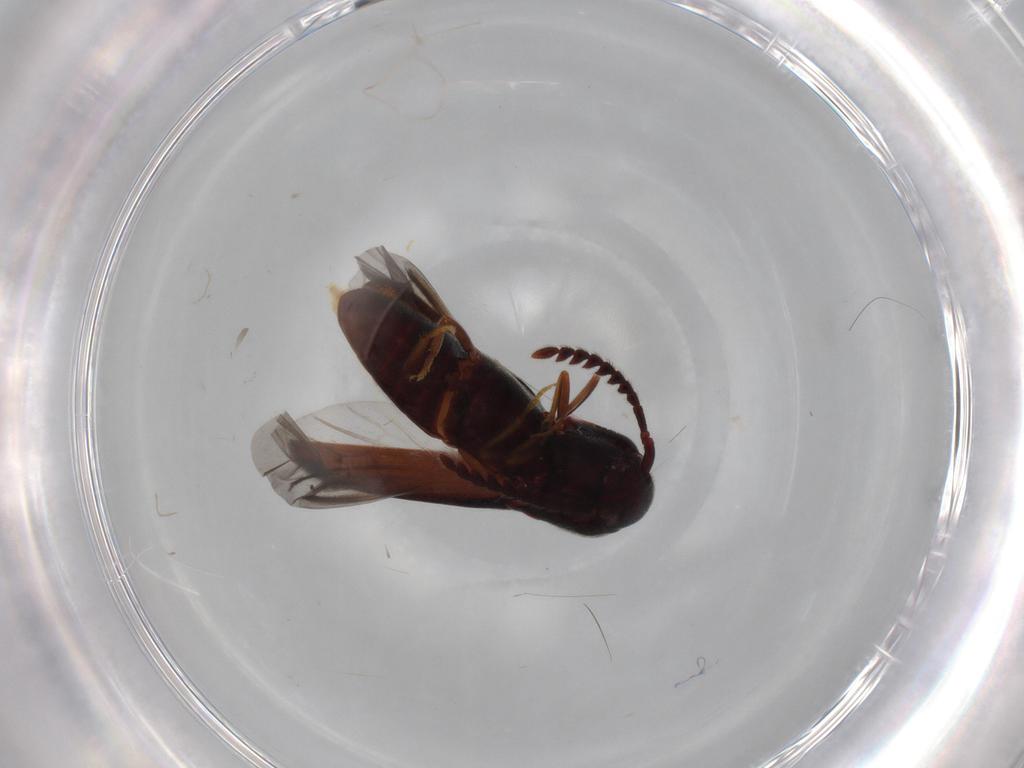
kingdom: Animalia
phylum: Arthropoda
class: Insecta
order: Coleoptera
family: Eucnemidae
